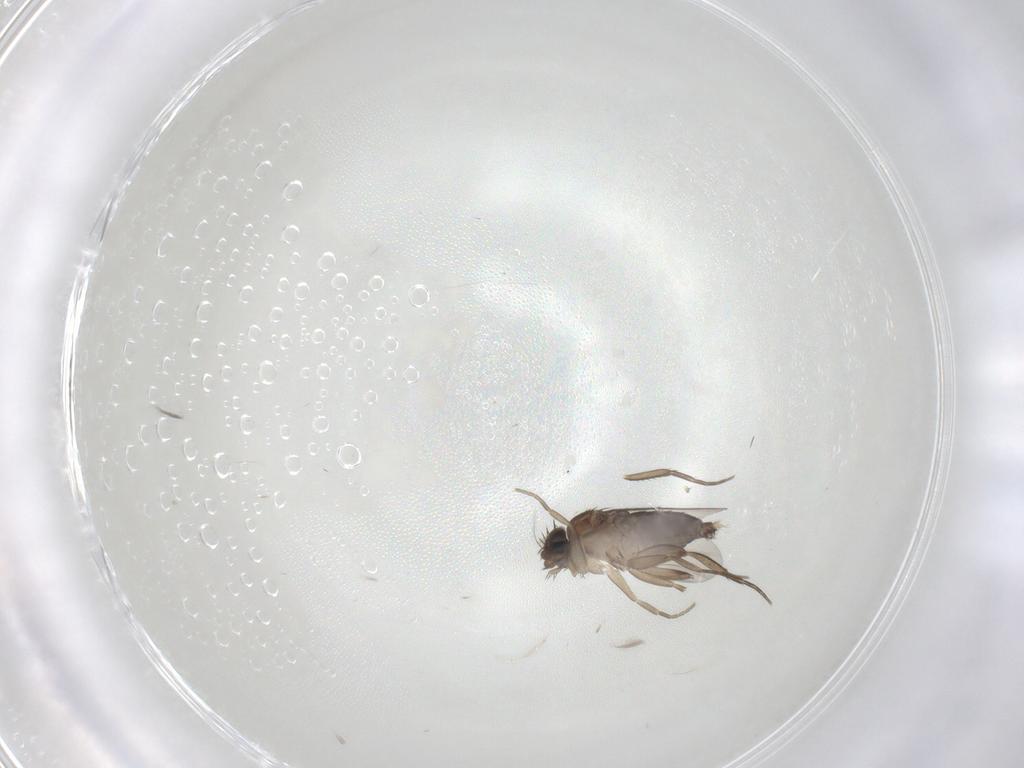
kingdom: Animalia
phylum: Arthropoda
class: Insecta
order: Diptera
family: Phoridae
